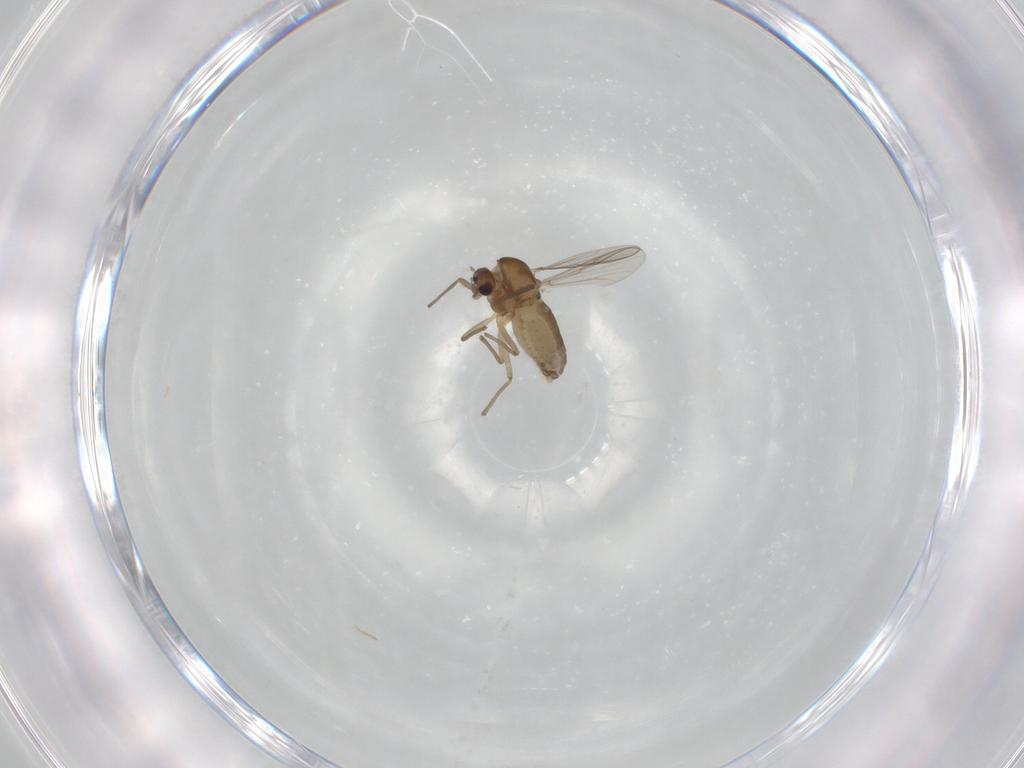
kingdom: Animalia
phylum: Arthropoda
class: Insecta
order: Diptera
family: Chironomidae
